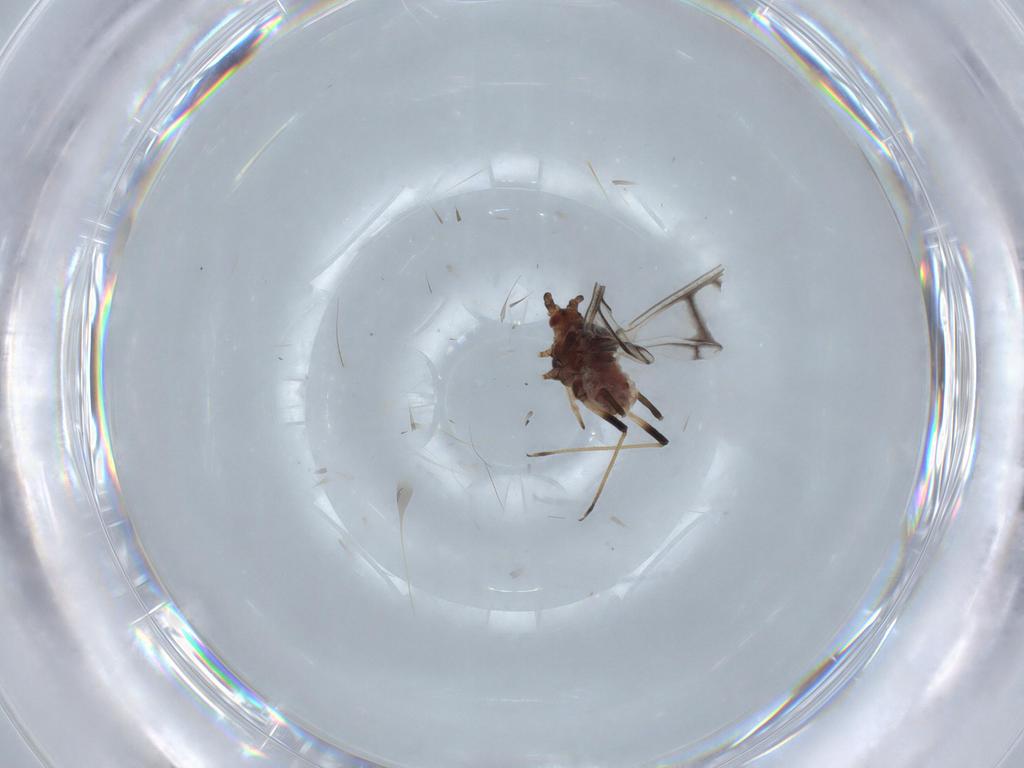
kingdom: Animalia
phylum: Arthropoda
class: Insecta
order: Hemiptera
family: Aphididae
